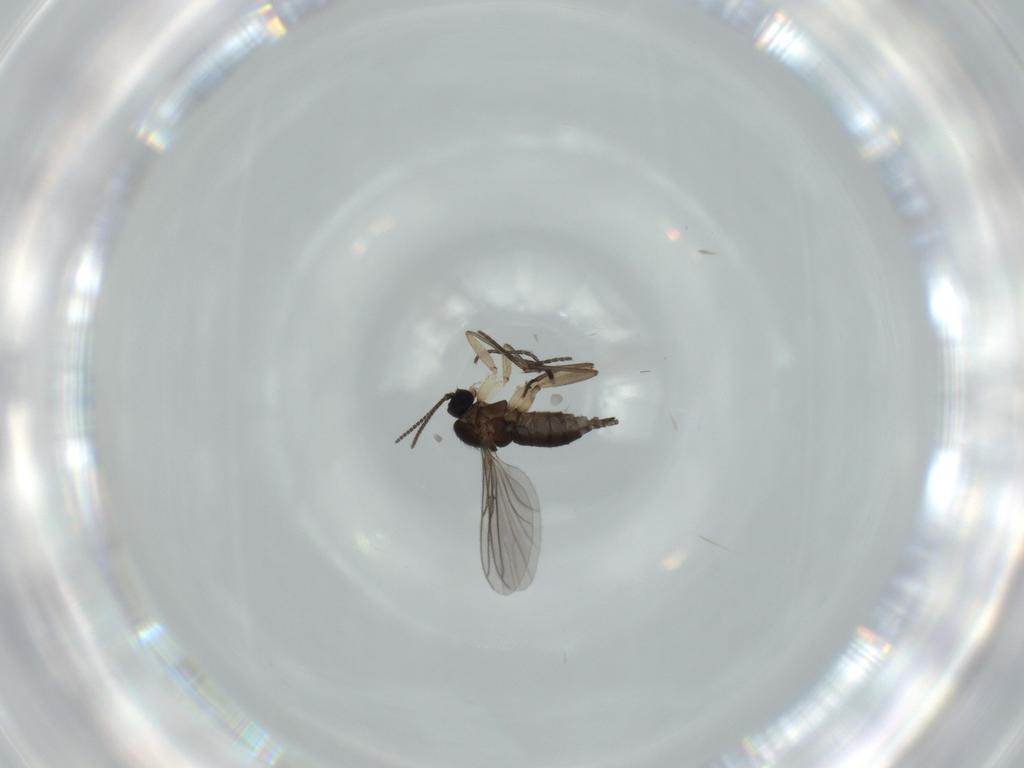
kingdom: Animalia
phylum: Arthropoda
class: Insecta
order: Diptera
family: Sciaridae
